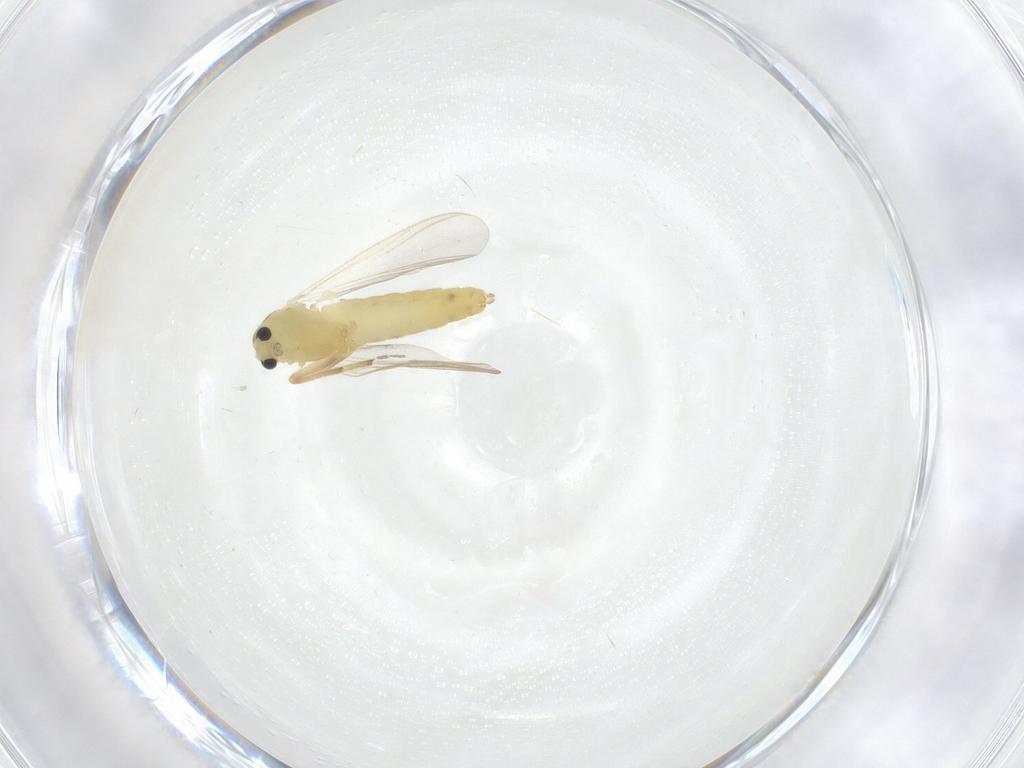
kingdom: Animalia
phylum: Arthropoda
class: Insecta
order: Diptera
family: Chironomidae
